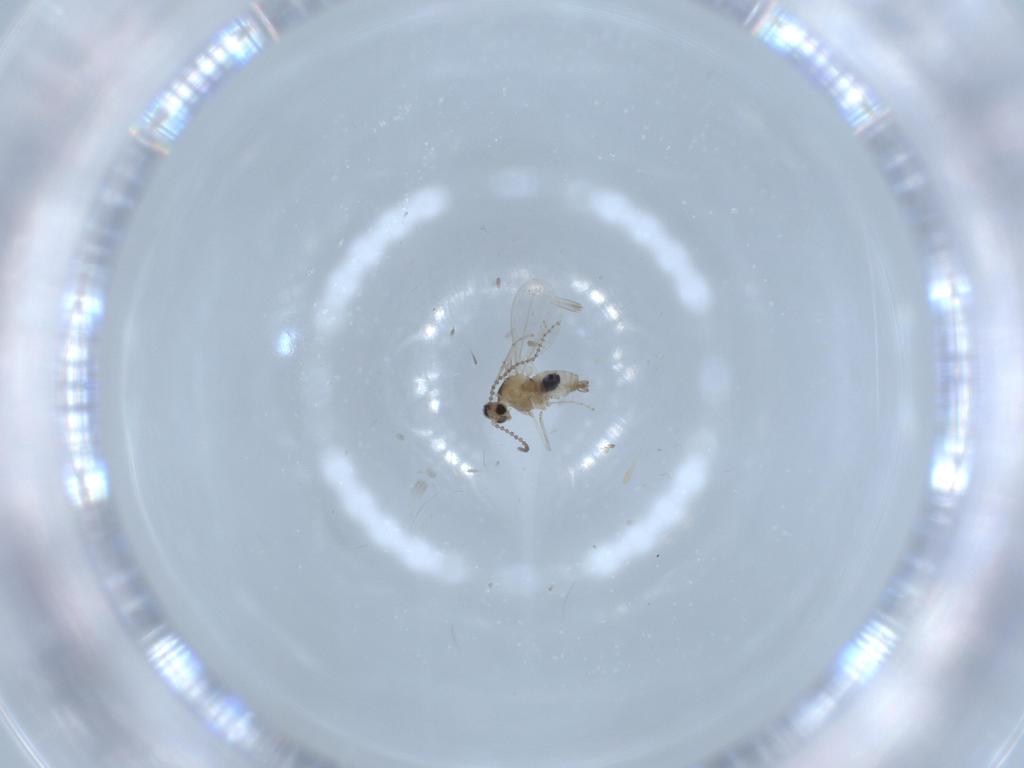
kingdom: Animalia
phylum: Arthropoda
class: Insecta
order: Diptera
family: Cecidomyiidae
